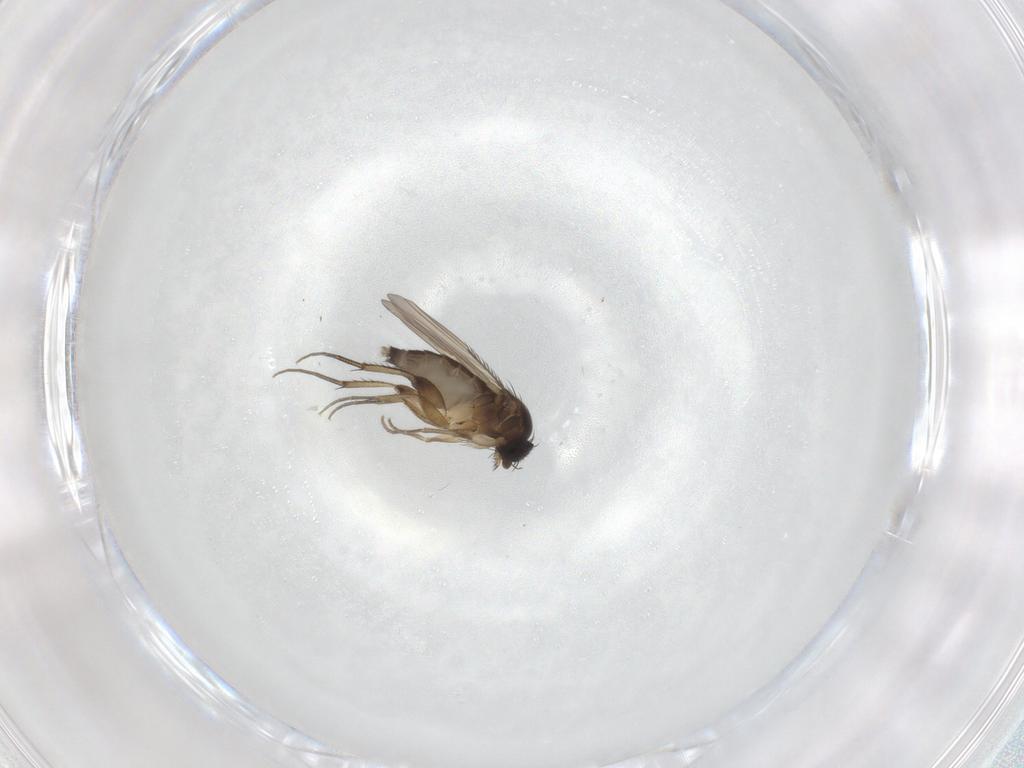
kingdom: Animalia
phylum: Arthropoda
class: Insecta
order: Diptera
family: Phoridae
